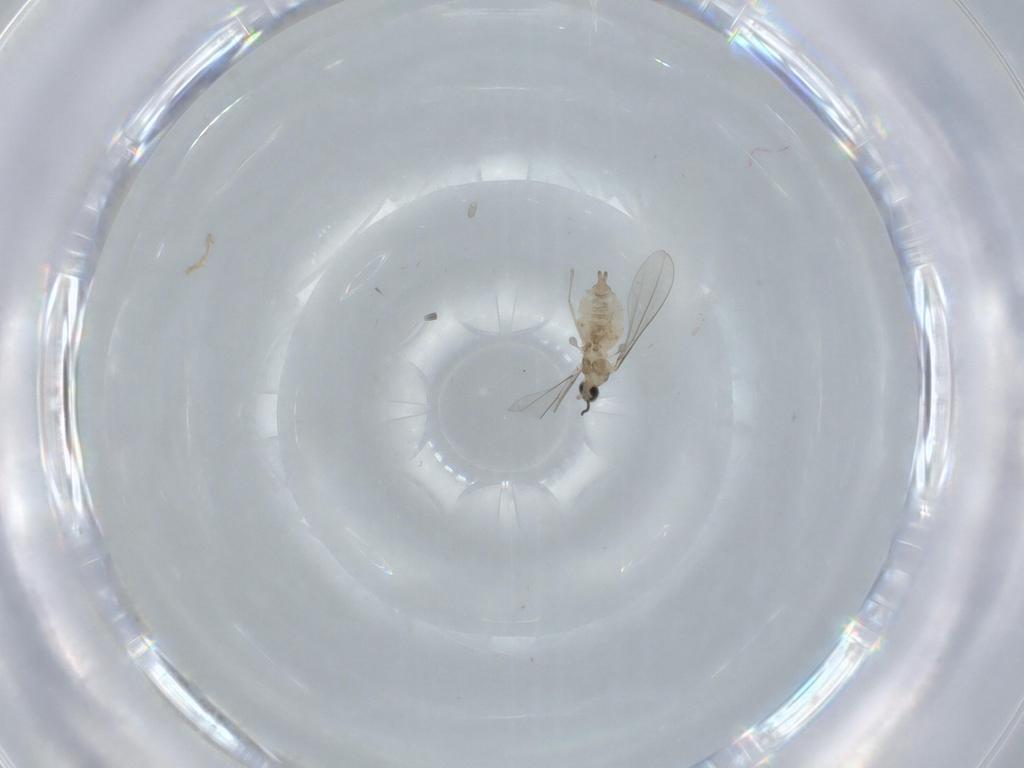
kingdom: Animalia
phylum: Arthropoda
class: Insecta
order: Diptera
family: Cecidomyiidae
